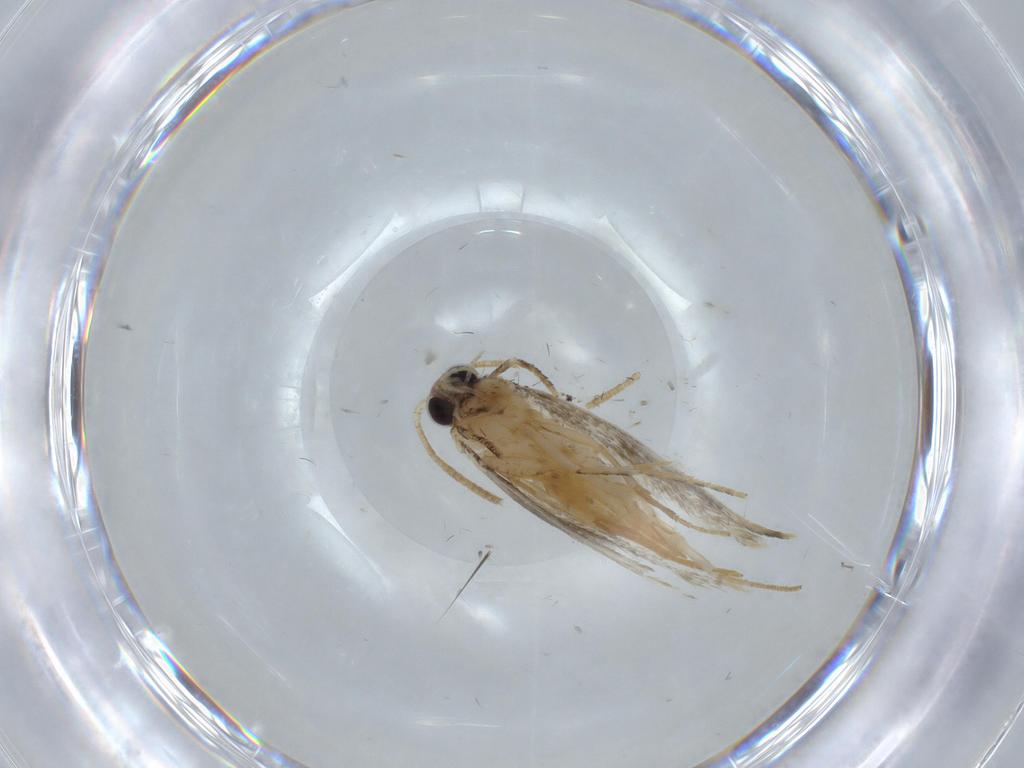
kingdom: Animalia
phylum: Arthropoda
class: Insecta
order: Lepidoptera
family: Tineidae
